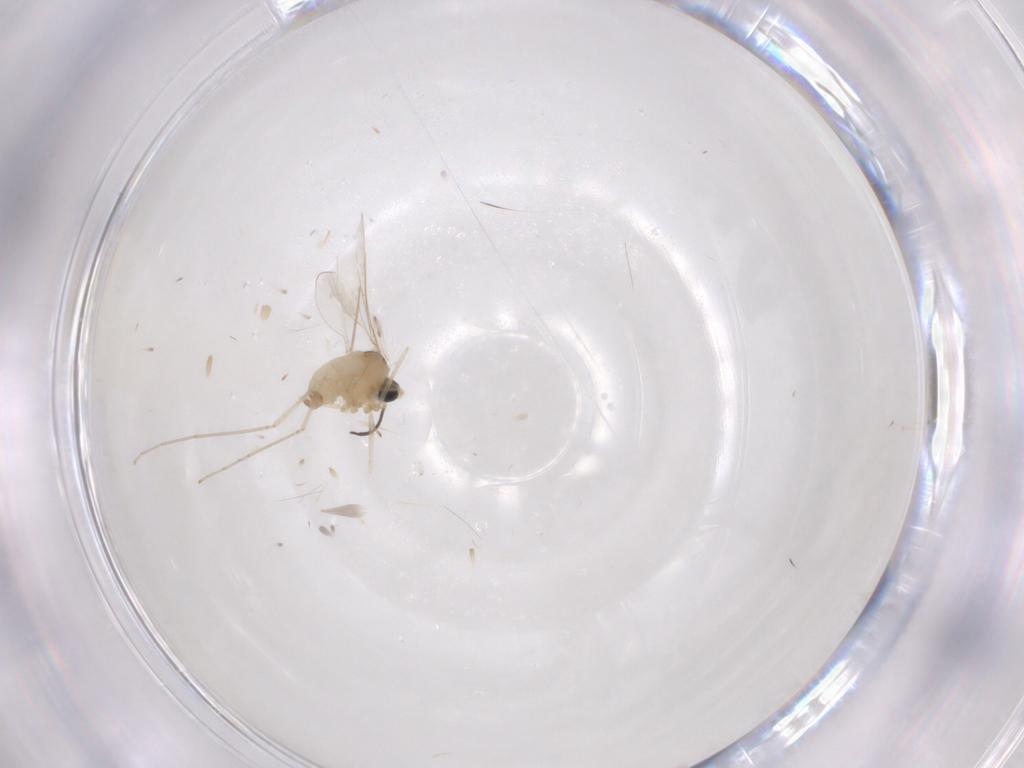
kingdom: Animalia
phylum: Arthropoda
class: Insecta
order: Diptera
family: Cecidomyiidae
